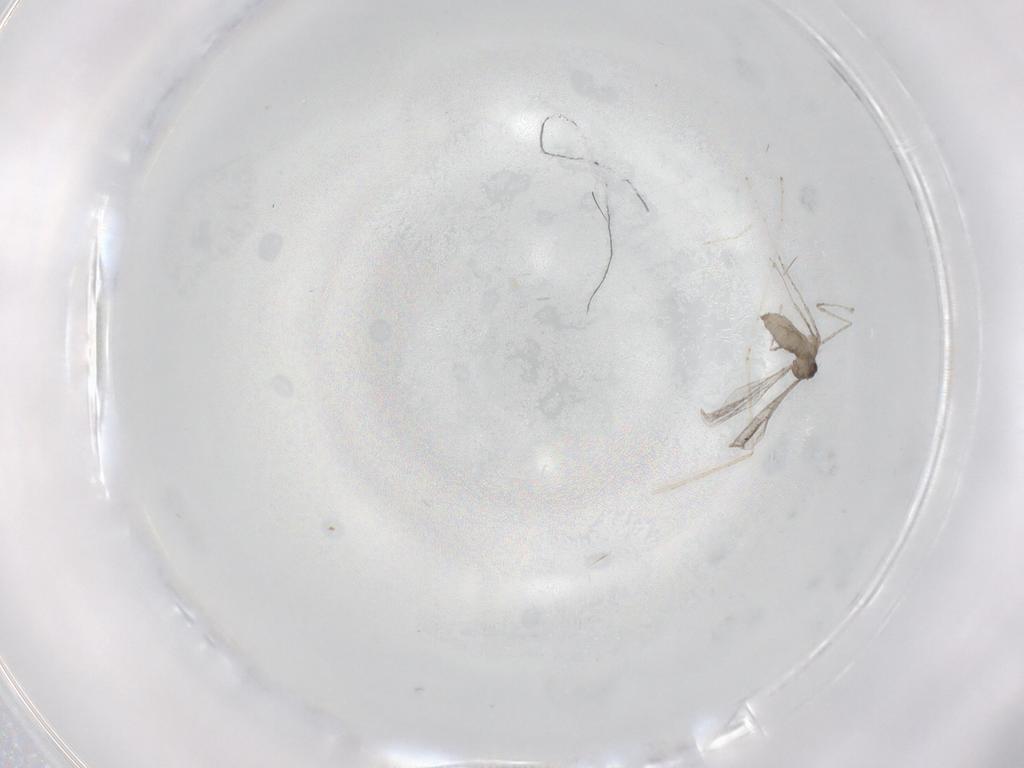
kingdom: Animalia
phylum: Arthropoda
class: Insecta
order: Diptera
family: Cecidomyiidae
